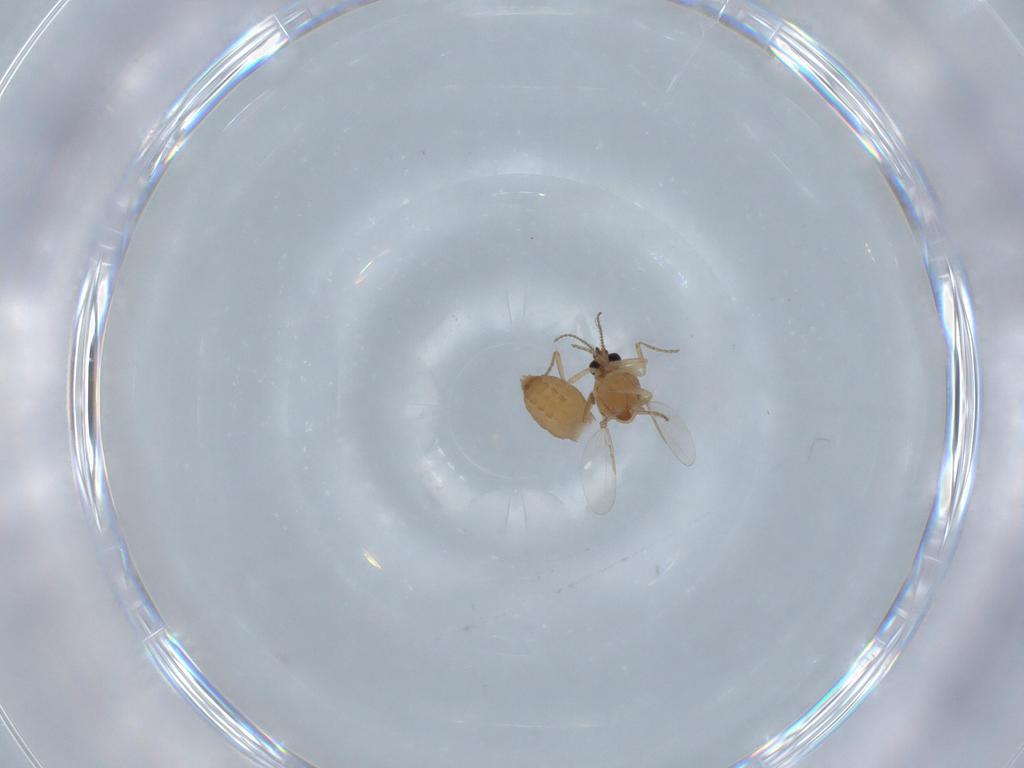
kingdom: Animalia
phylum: Arthropoda
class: Insecta
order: Diptera
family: Ceratopogonidae
